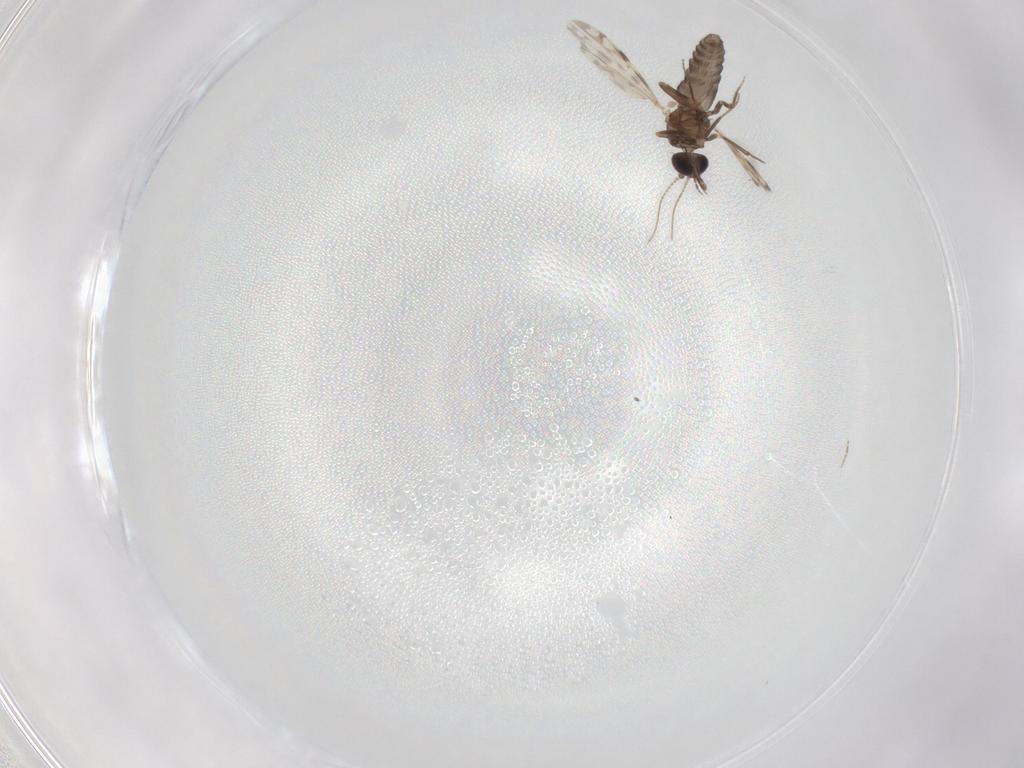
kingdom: Animalia
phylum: Arthropoda
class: Insecta
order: Diptera
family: Ceratopogonidae
